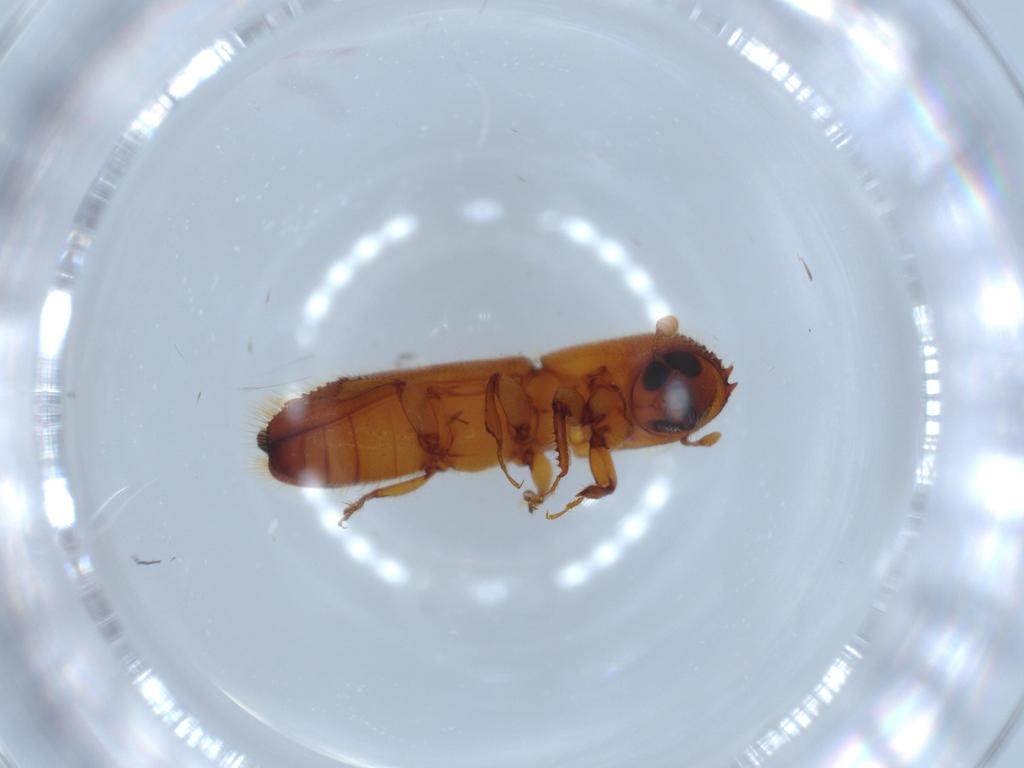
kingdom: Animalia
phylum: Arthropoda
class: Insecta
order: Coleoptera
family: Curculionidae
